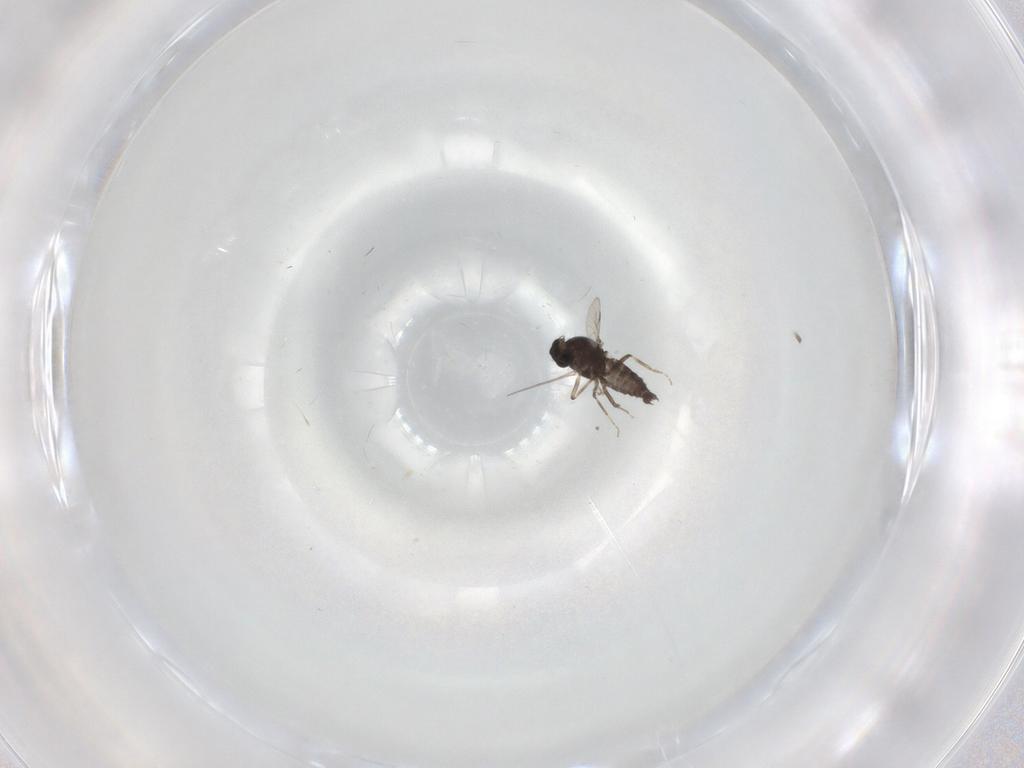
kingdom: Animalia
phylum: Arthropoda
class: Insecta
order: Diptera
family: Ceratopogonidae
